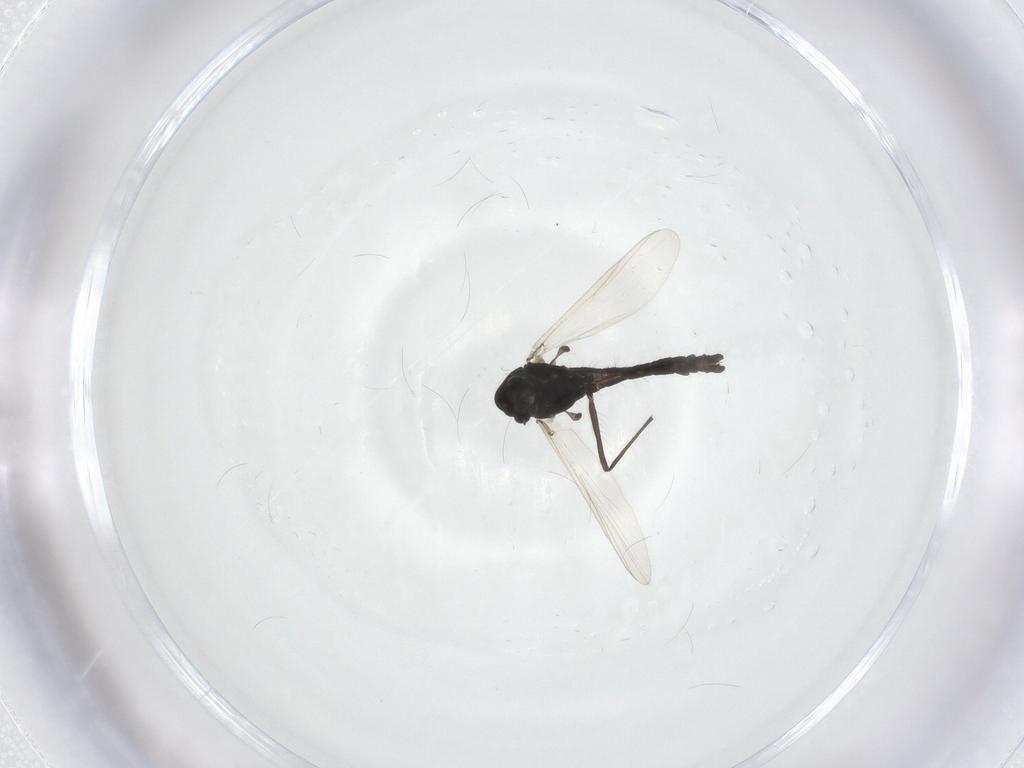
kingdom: Animalia
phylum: Arthropoda
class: Insecta
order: Diptera
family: Chironomidae
